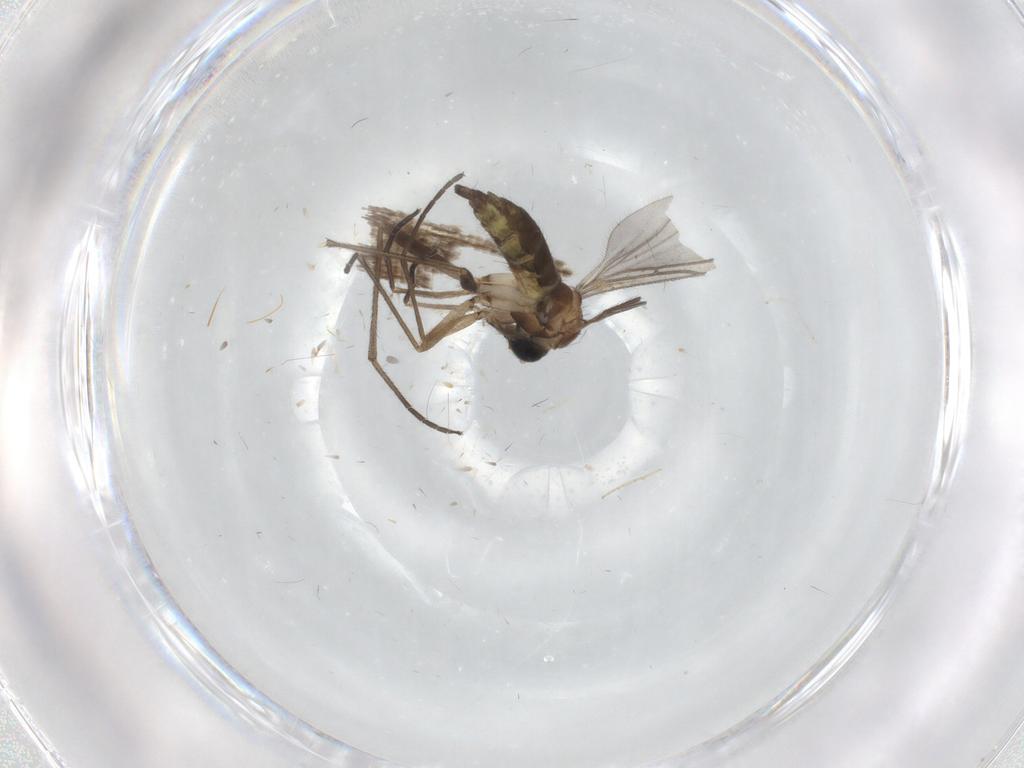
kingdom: Animalia
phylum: Arthropoda
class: Insecta
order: Diptera
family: Sciaridae
